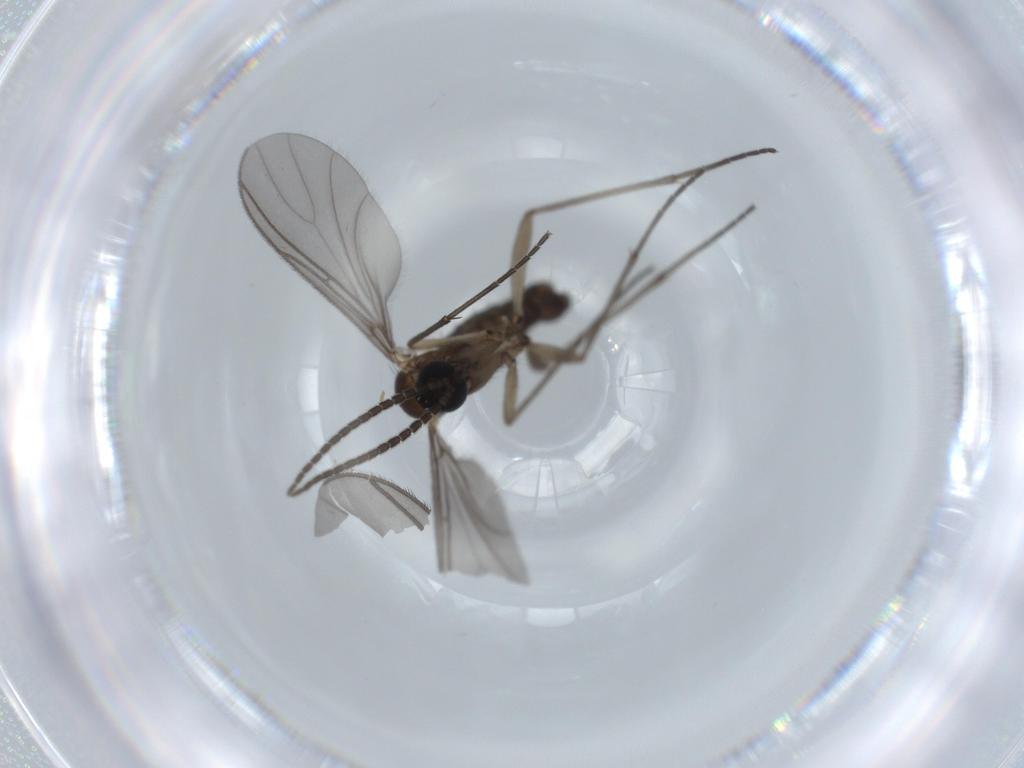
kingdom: Animalia
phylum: Arthropoda
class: Insecta
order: Diptera
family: Sciaridae
